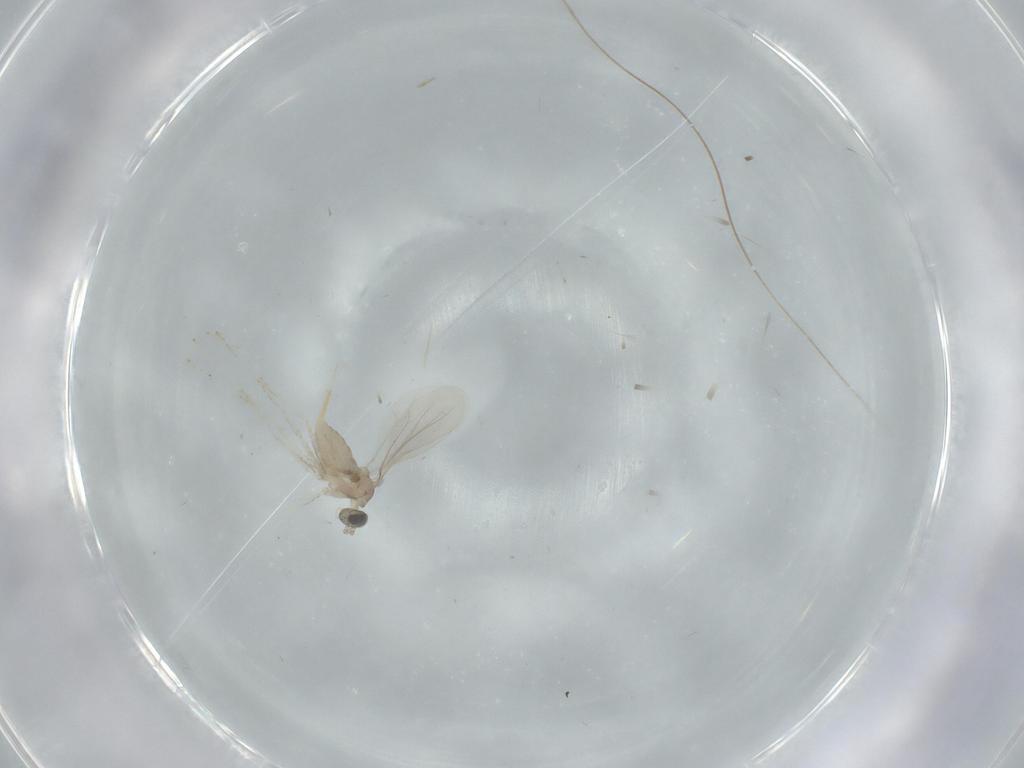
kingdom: Animalia
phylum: Arthropoda
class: Insecta
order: Diptera
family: Cecidomyiidae
